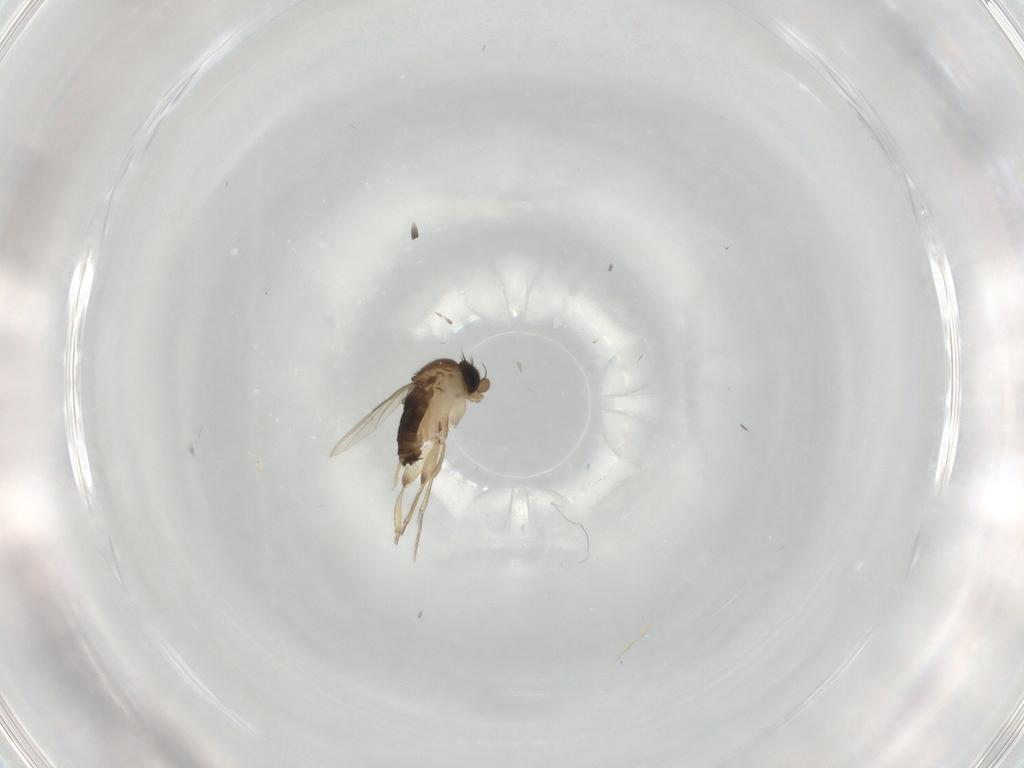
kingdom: Animalia
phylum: Arthropoda
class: Insecta
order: Diptera
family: Phoridae
